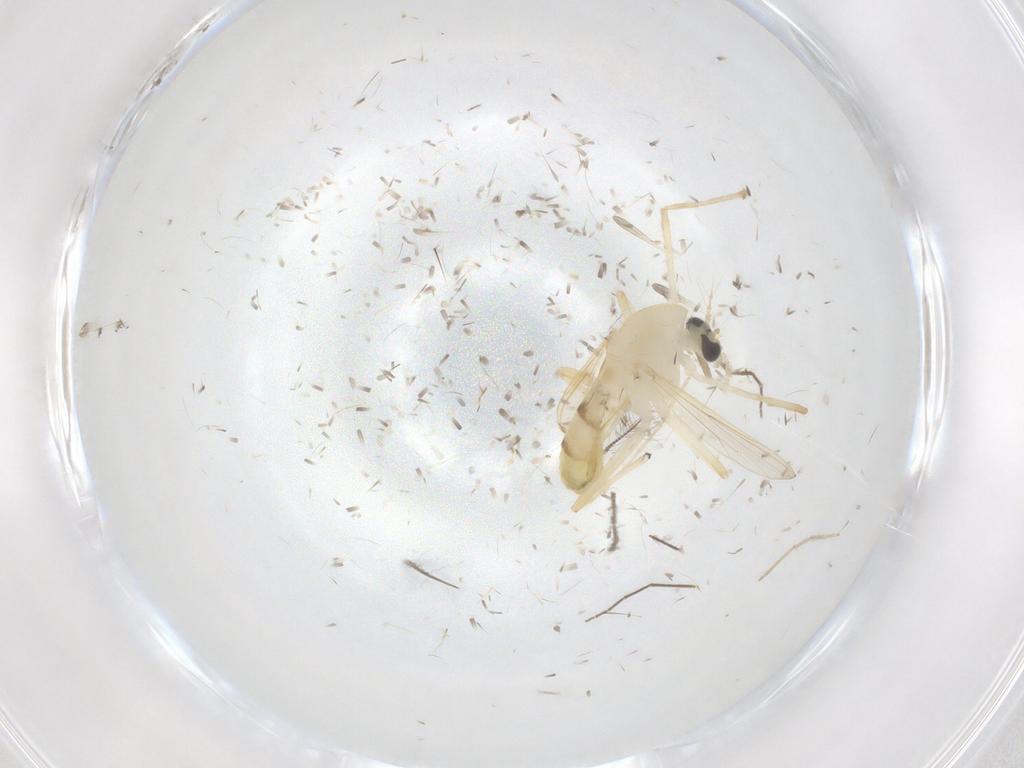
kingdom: Animalia
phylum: Arthropoda
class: Insecta
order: Diptera
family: Chironomidae
